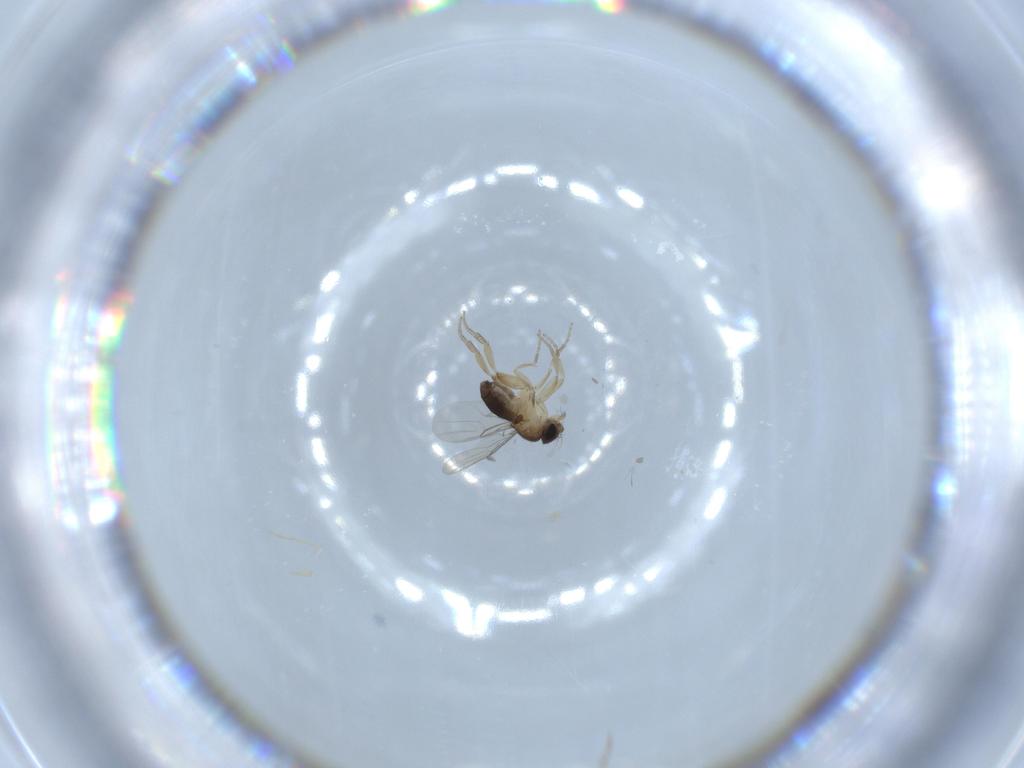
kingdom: Animalia
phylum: Arthropoda
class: Insecta
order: Diptera
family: Phoridae
